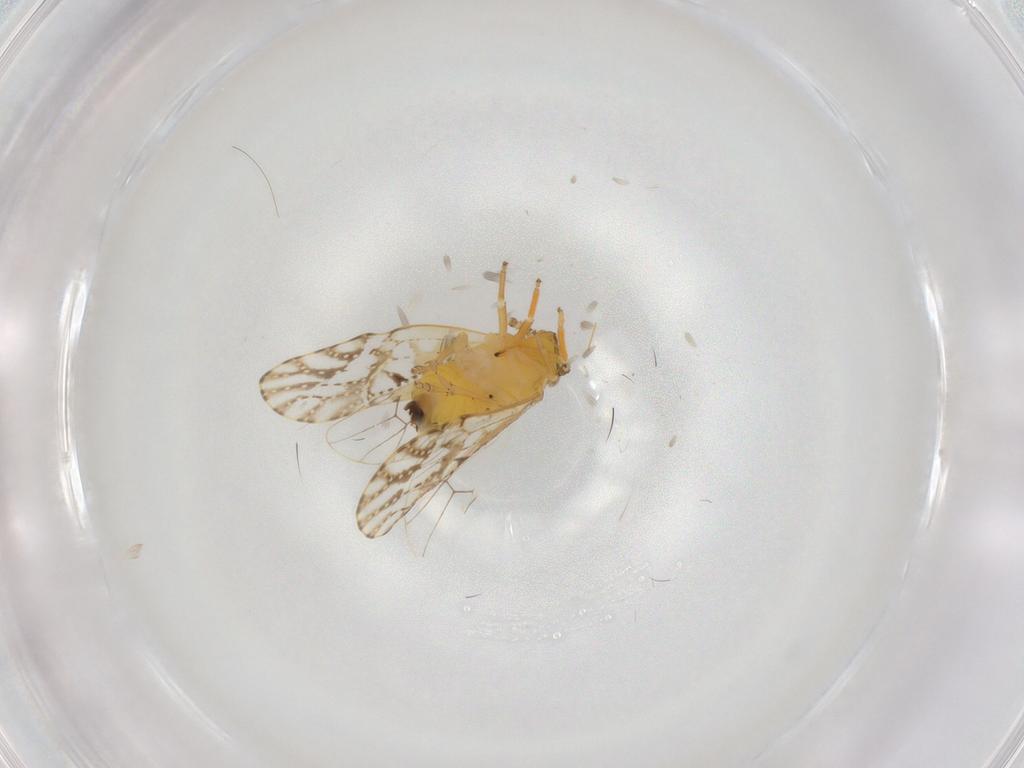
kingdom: Animalia
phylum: Arthropoda
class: Insecta
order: Hemiptera
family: Delphacidae
